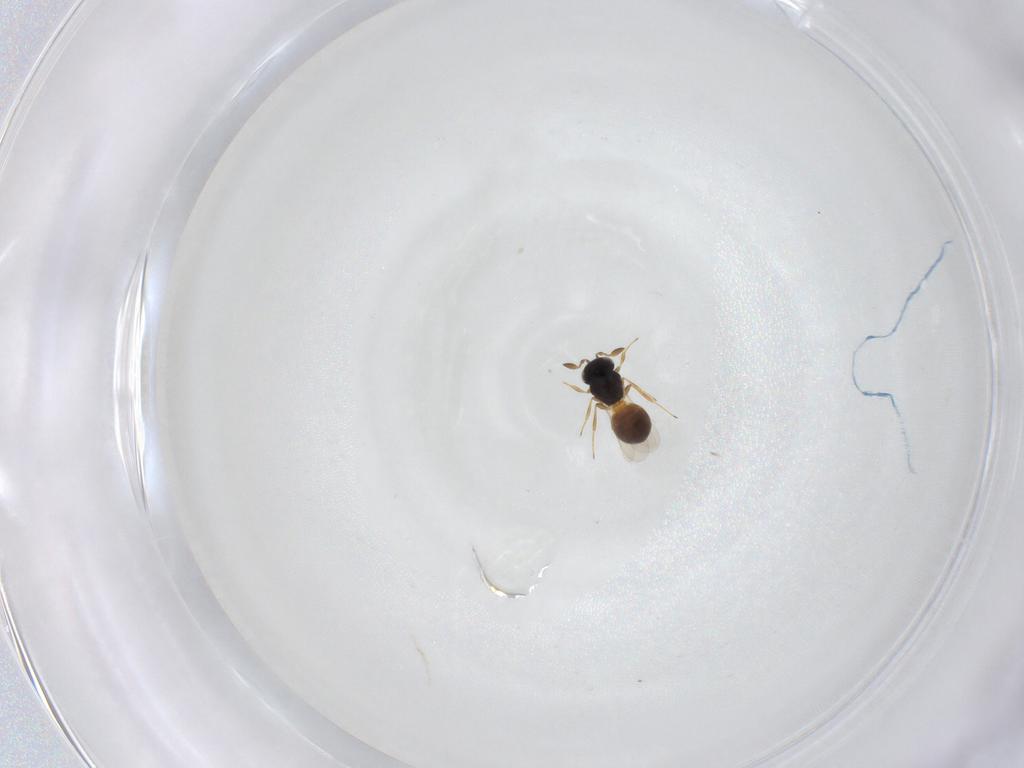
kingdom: Animalia
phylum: Arthropoda
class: Insecta
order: Hymenoptera
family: Scelionidae
